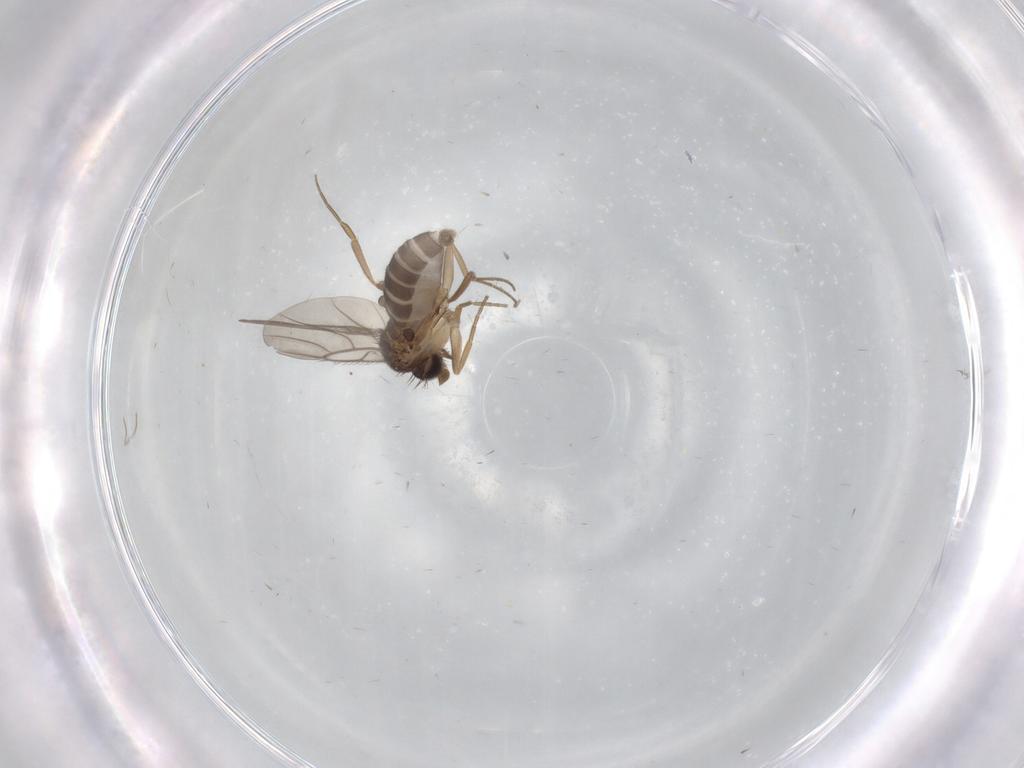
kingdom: Animalia
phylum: Arthropoda
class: Insecta
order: Diptera
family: Phoridae
